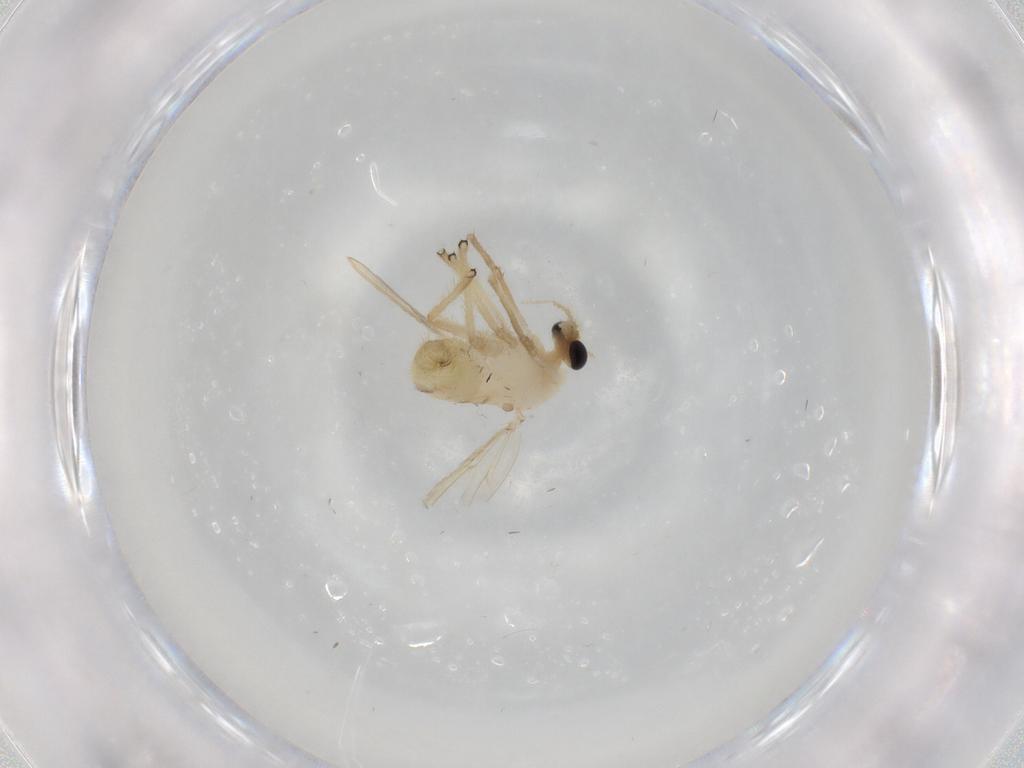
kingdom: Animalia
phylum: Arthropoda
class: Insecta
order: Diptera
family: Chironomidae
